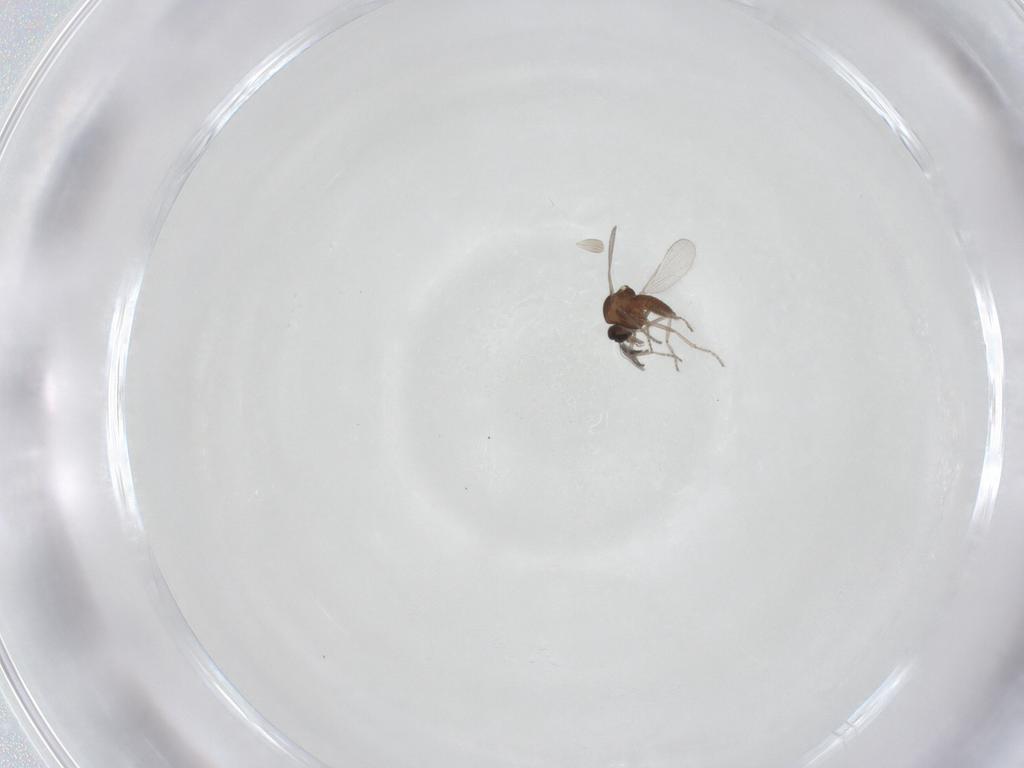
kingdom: Animalia
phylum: Arthropoda
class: Insecta
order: Diptera
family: Ceratopogonidae
